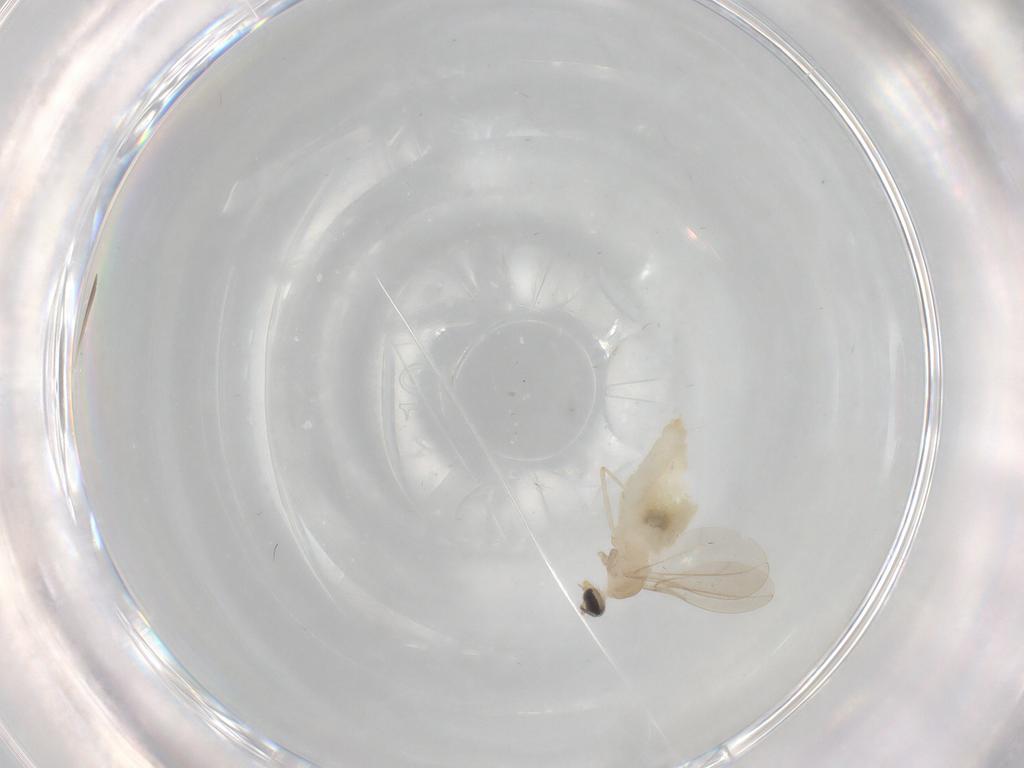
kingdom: Animalia
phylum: Arthropoda
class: Insecta
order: Diptera
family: Cecidomyiidae
